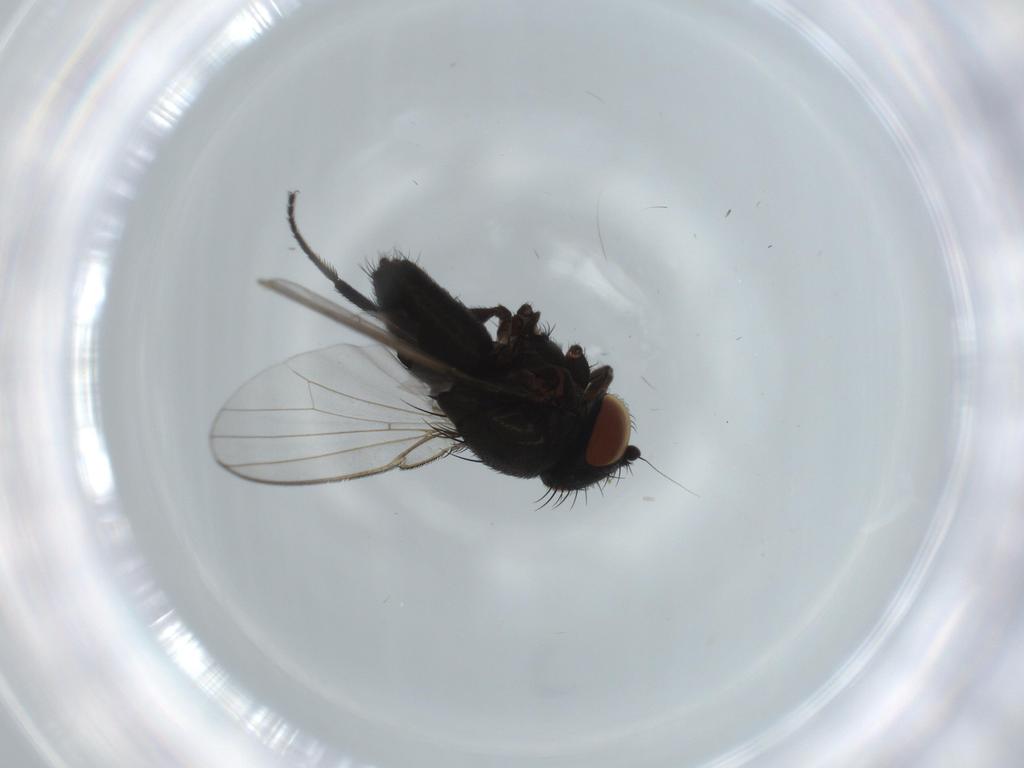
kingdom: Animalia
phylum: Arthropoda
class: Insecta
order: Diptera
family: Milichiidae
